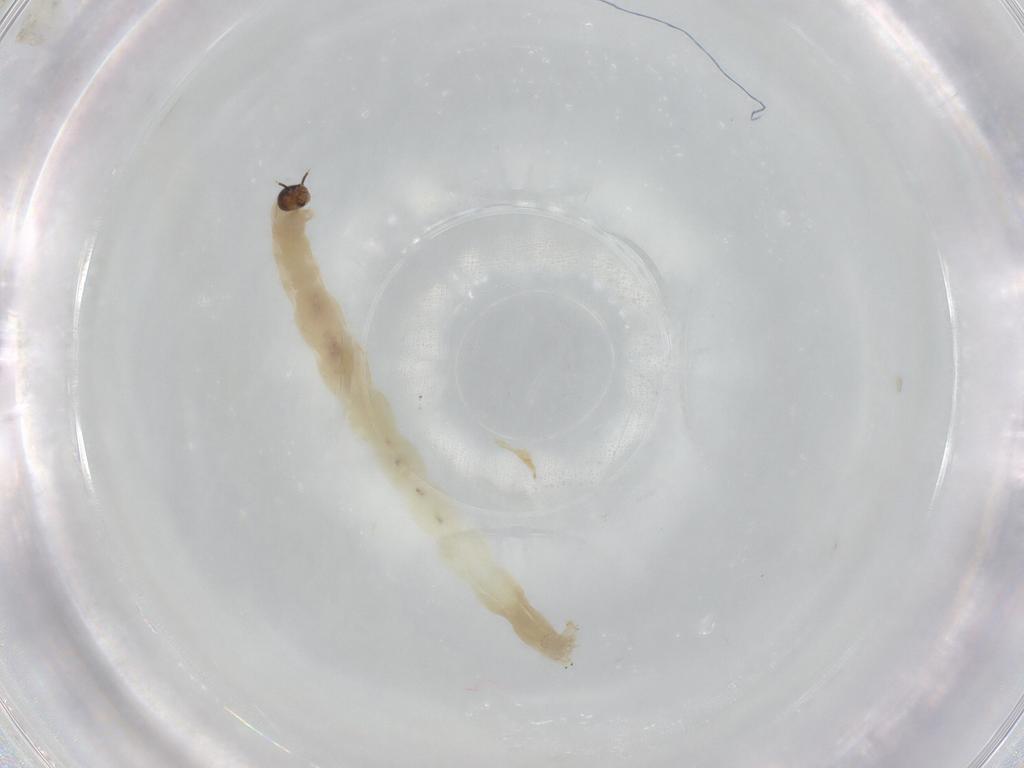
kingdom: Animalia
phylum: Arthropoda
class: Insecta
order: Diptera
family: Chironomidae
